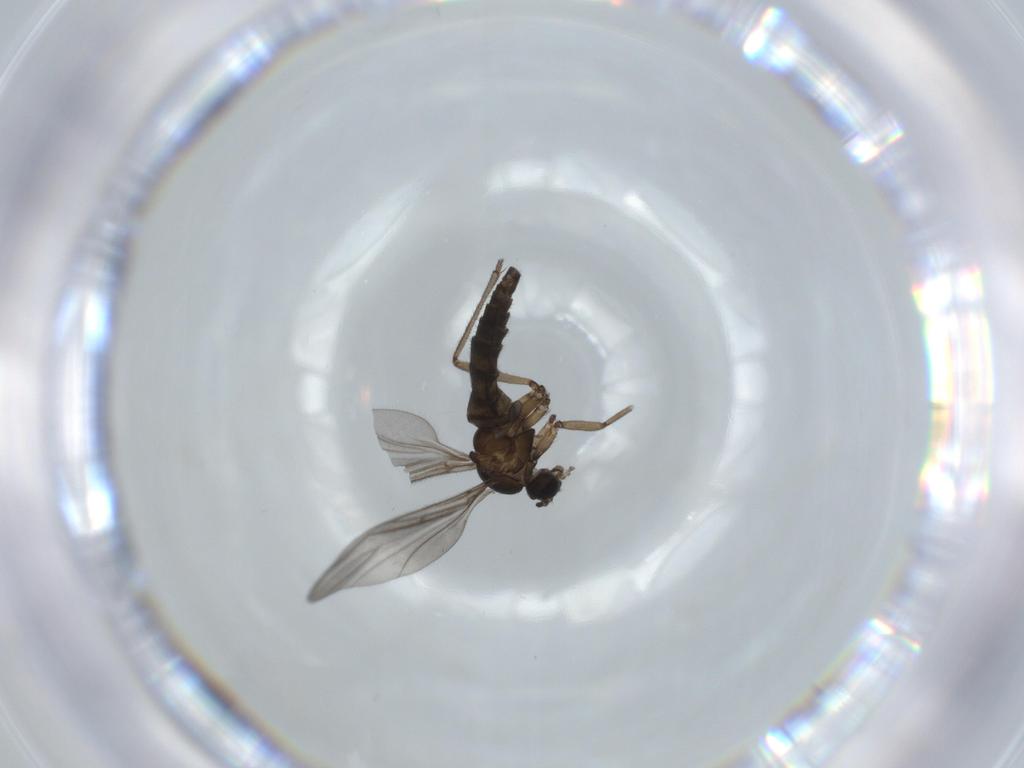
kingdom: Animalia
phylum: Arthropoda
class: Insecta
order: Diptera
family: Sciaridae
